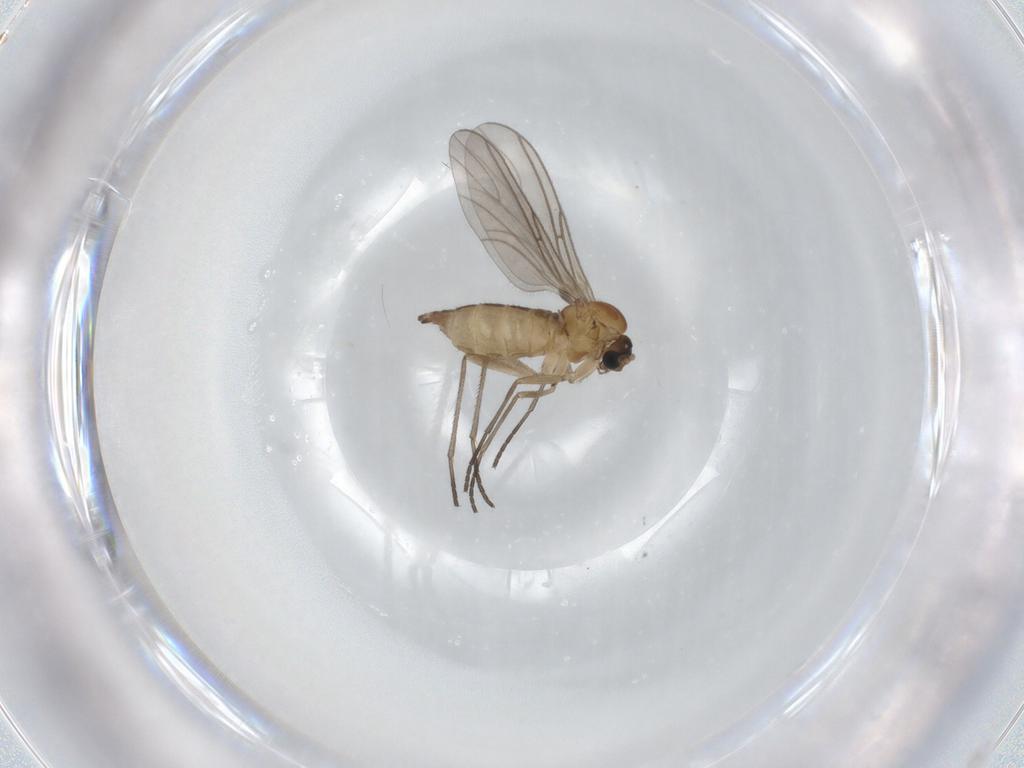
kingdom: Animalia
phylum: Arthropoda
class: Insecta
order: Diptera
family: Sciaridae
